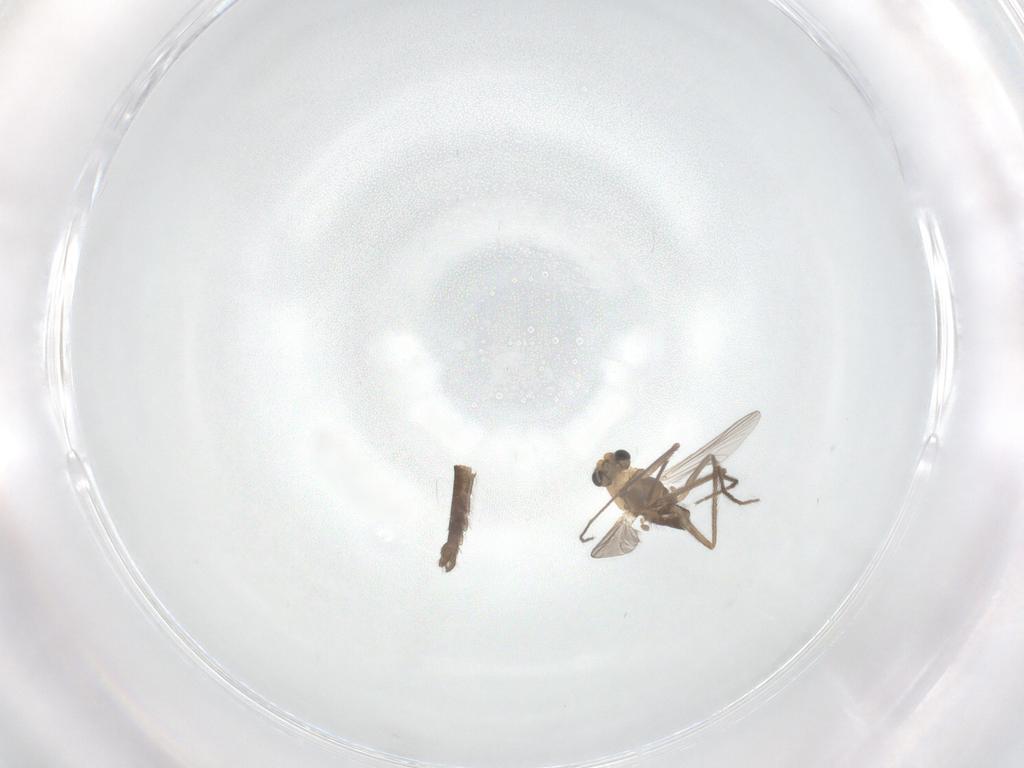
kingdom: Animalia
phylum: Arthropoda
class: Insecta
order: Diptera
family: Chironomidae
